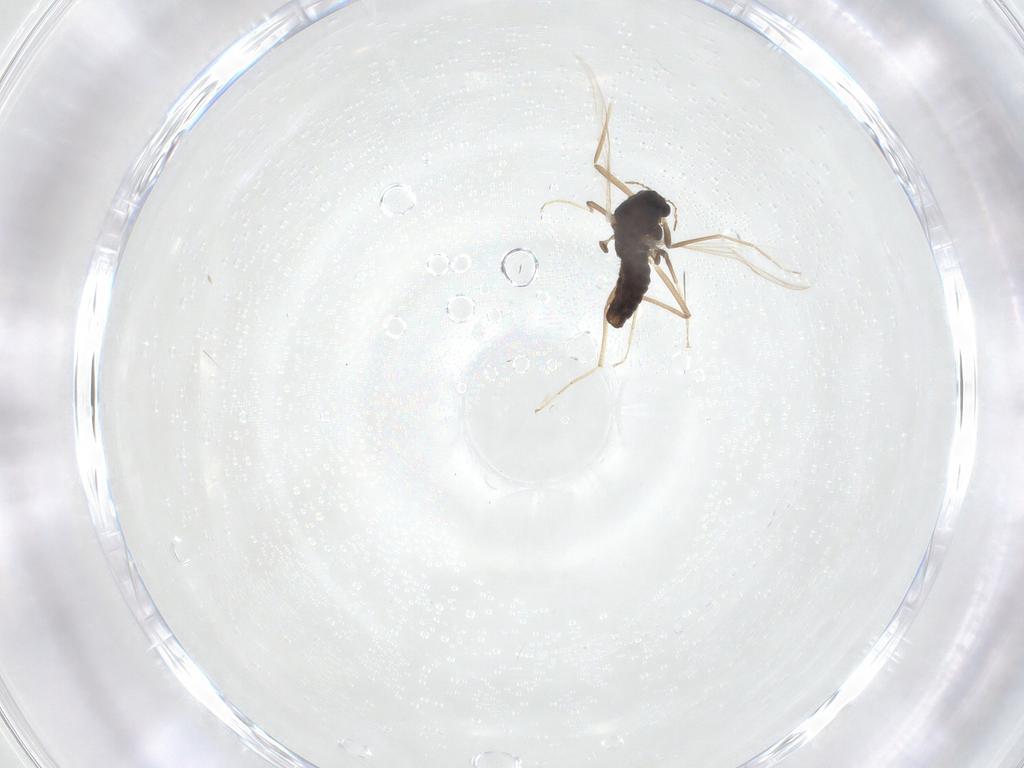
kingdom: Animalia
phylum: Arthropoda
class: Insecta
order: Diptera
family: Chironomidae
